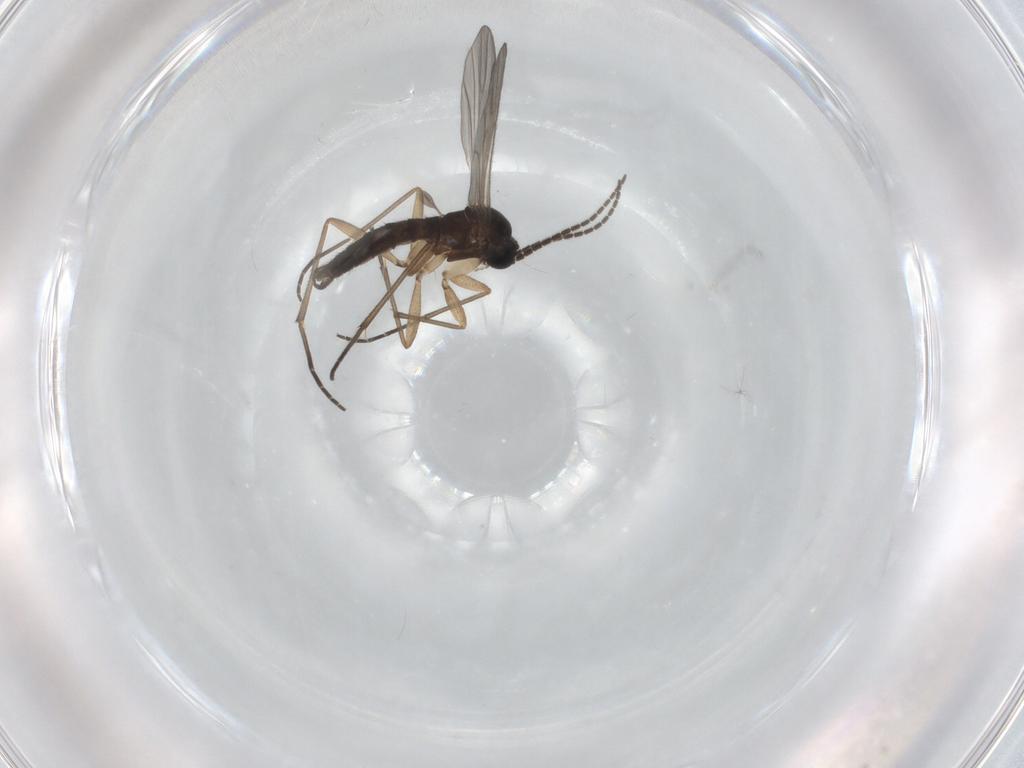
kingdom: Animalia
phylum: Arthropoda
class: Insecta
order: Diptera
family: Sciaridae
